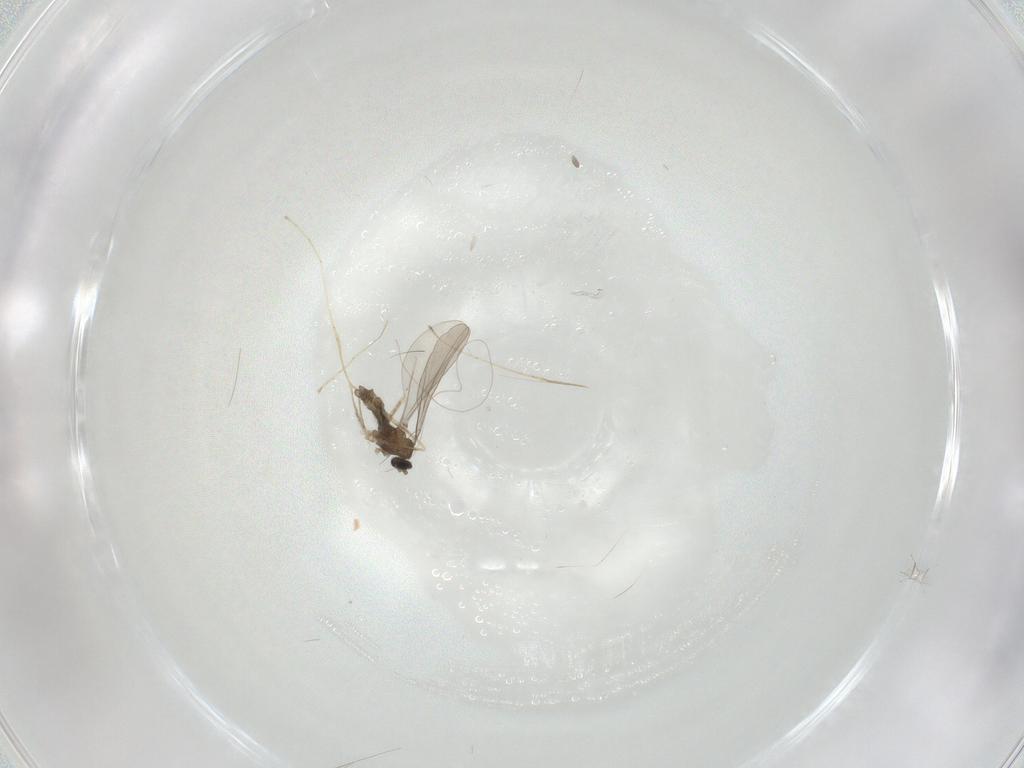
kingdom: Animalia
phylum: Arthropoda
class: Insecta
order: Diptera
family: Cecidomyiidae
